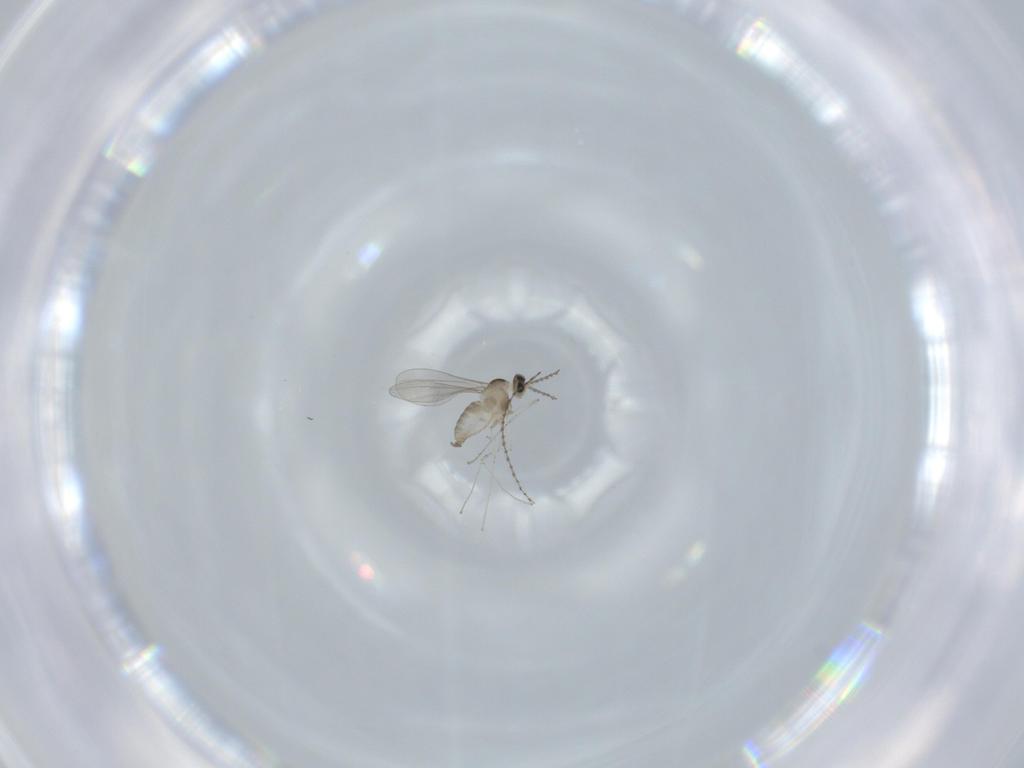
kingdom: Animalia
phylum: Arthropoda
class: Insecta
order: Diptera
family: Cecidomyiidae
